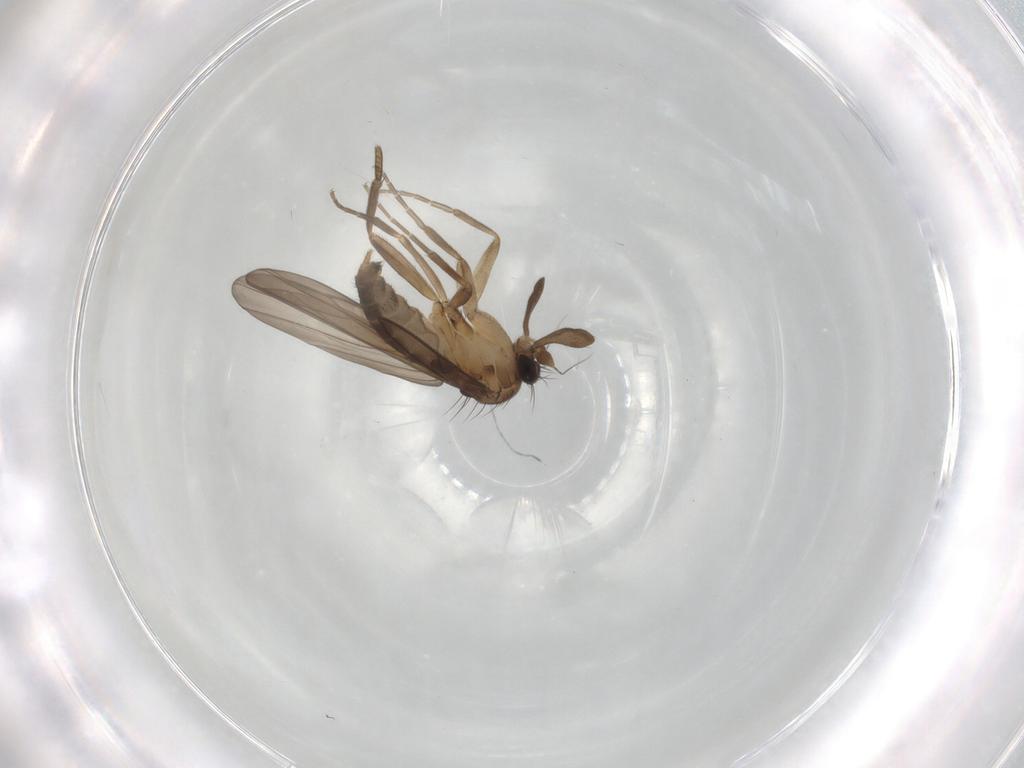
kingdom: Animalia
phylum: Arthropoda
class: Insecta
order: Diptera
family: Phoridae
